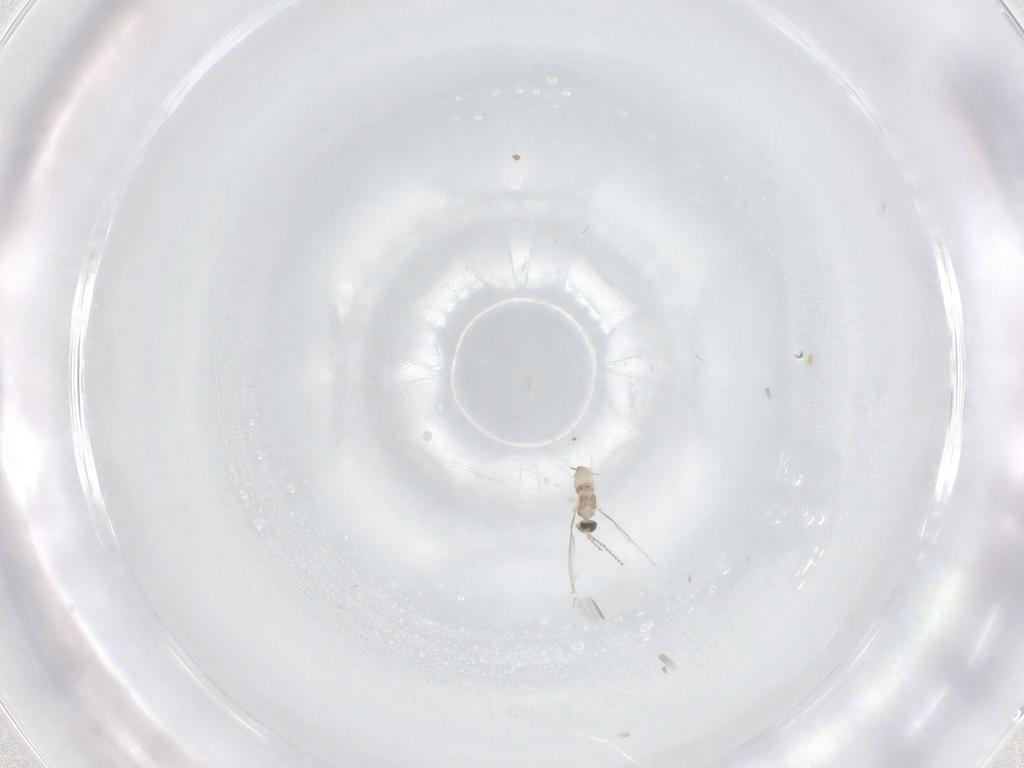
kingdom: Animalia
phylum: Arthropoda
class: Insecta
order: Diptera
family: Cecidomyiidae
